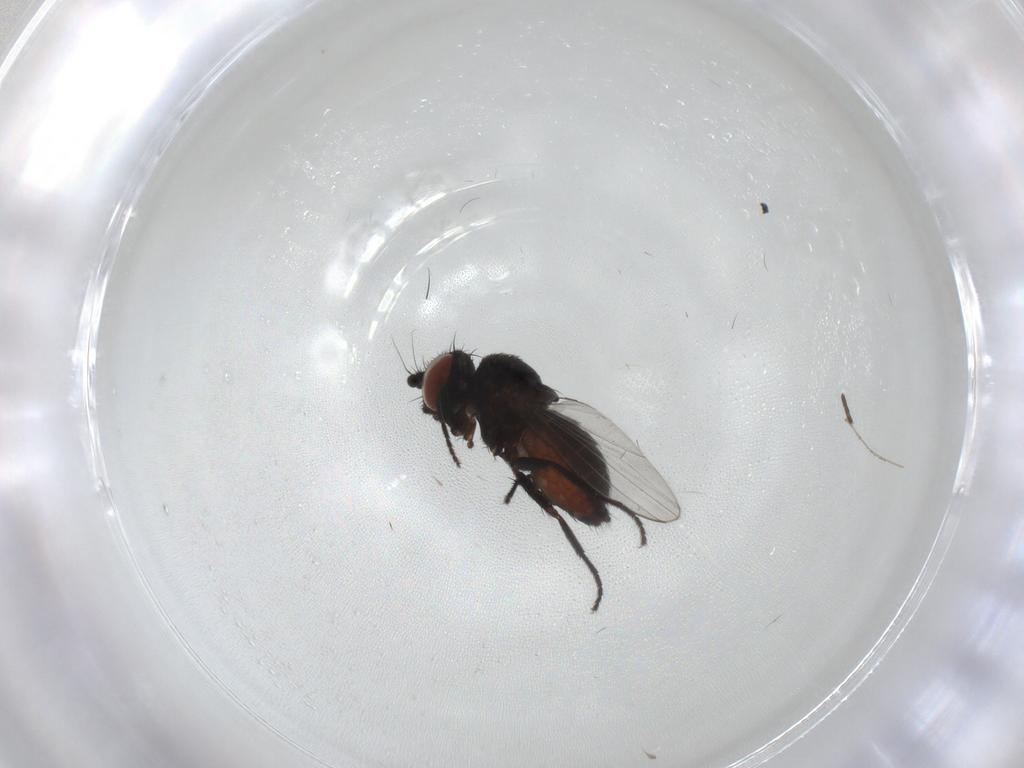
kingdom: Animalia
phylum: Arthropoda
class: Insecta
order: Diptera
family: Milichiidae
